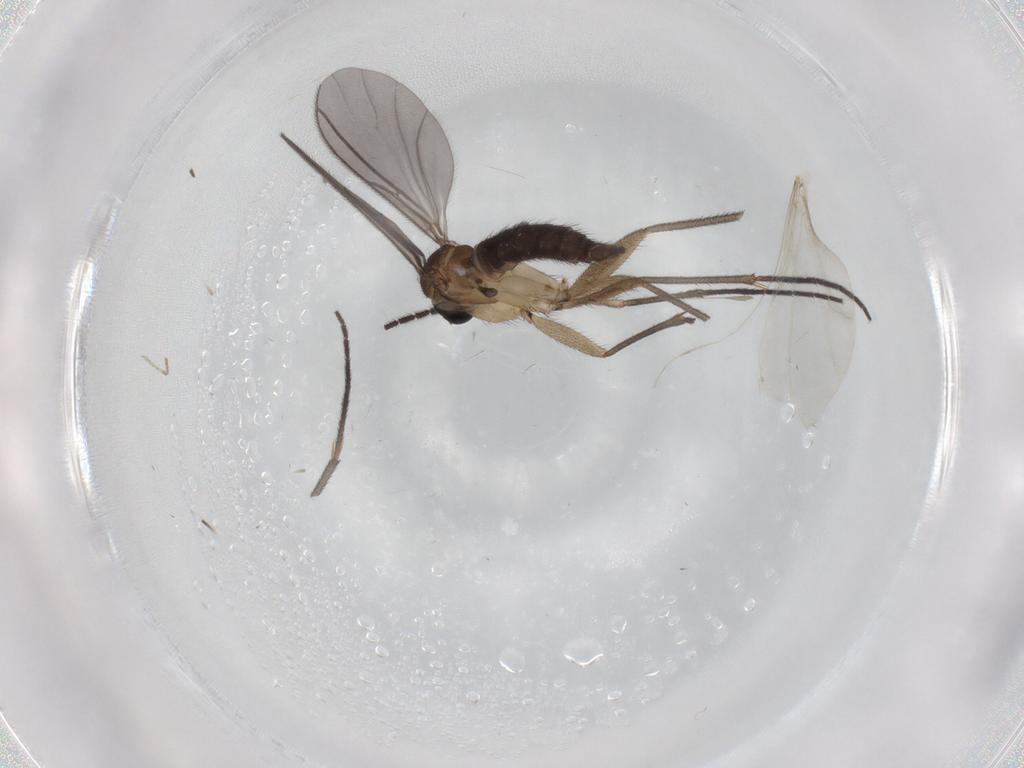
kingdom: Animalia
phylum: Arthropoda
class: Insecta
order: Diptera
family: Sciaridae
